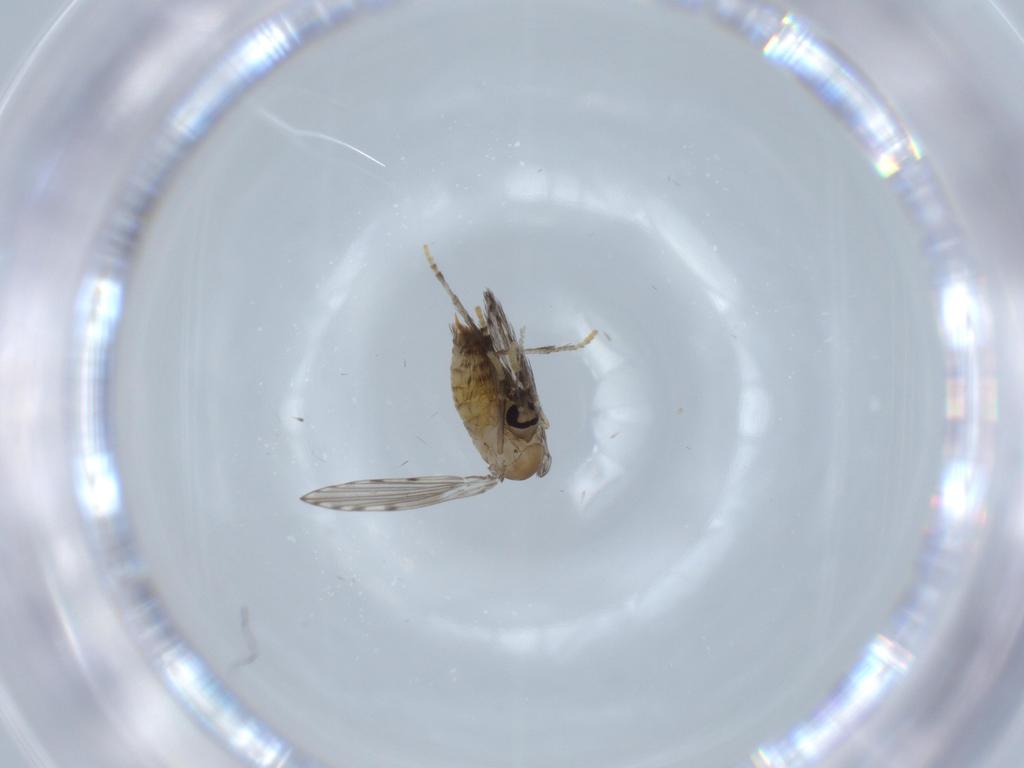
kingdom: Animalia
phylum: Arthropoda
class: Insecta
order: Diptera
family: Psychodidae
